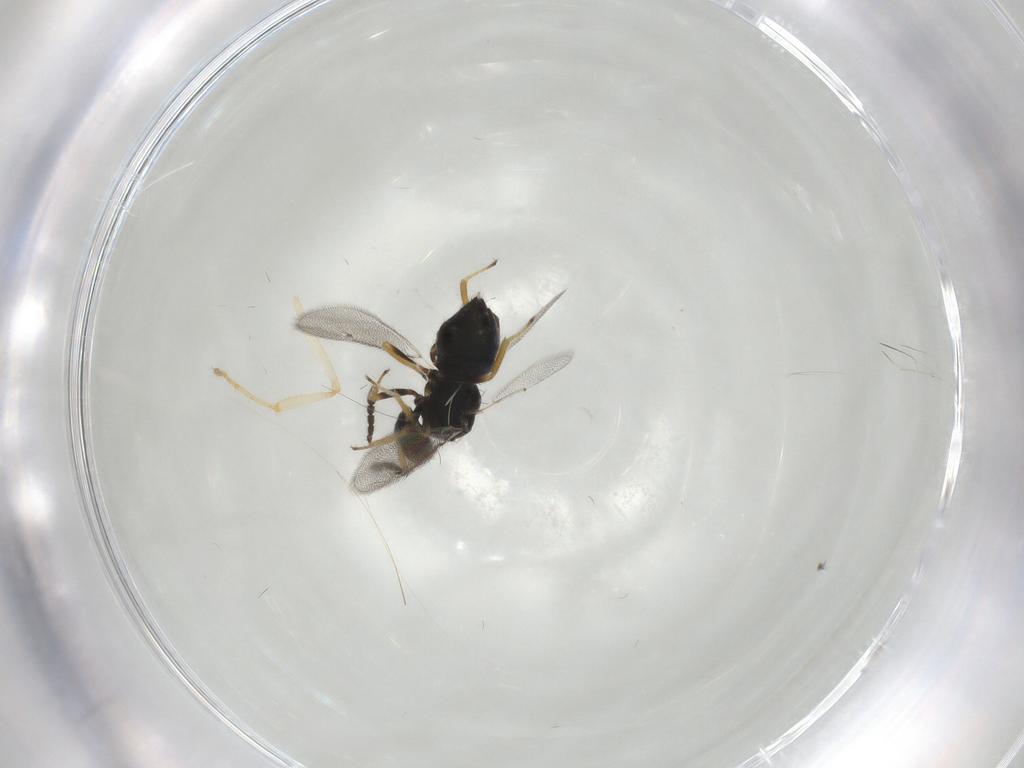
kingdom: Animalia
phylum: Arthropoda
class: Insecta
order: Hymenoptera
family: Eulophidae
